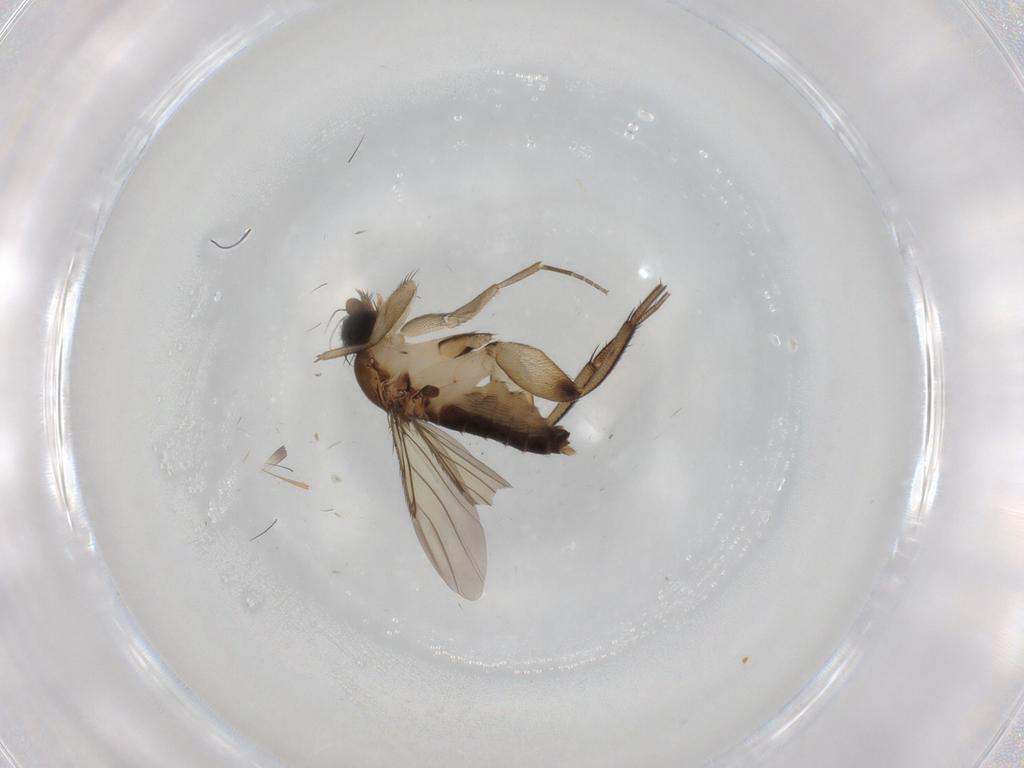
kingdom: Animalia
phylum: Arthropoda
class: Insecta
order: Diptera
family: Phoridae
